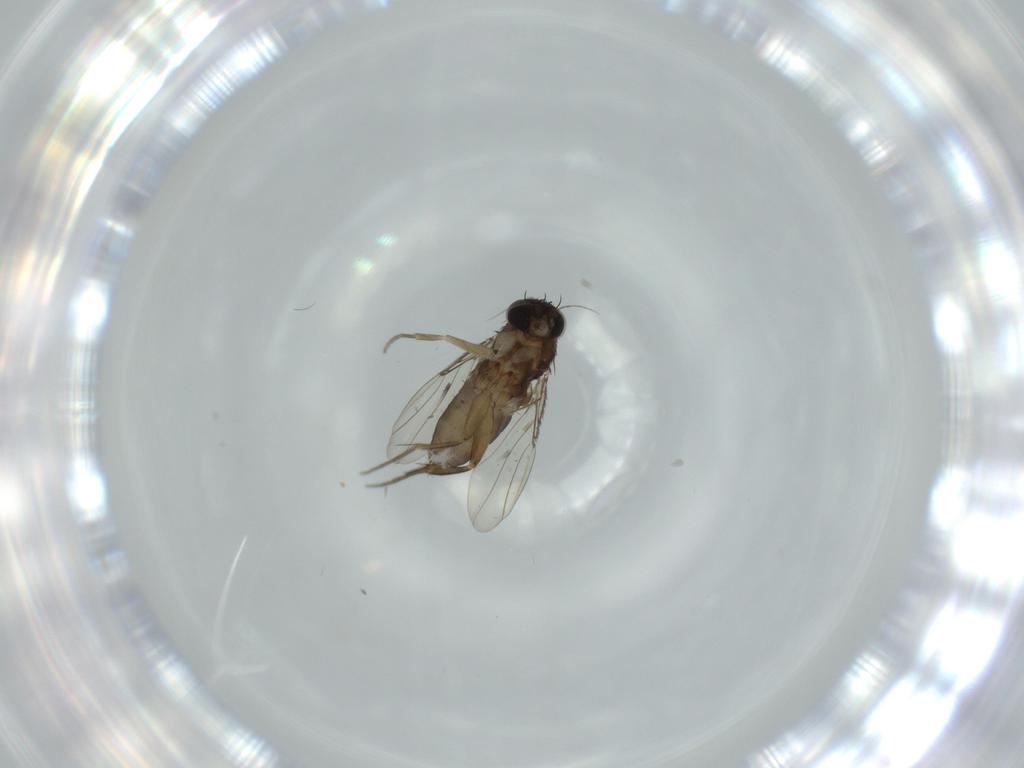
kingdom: Animalia
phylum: Arthropoda
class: Insecta
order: Diptera
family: Phoridae
